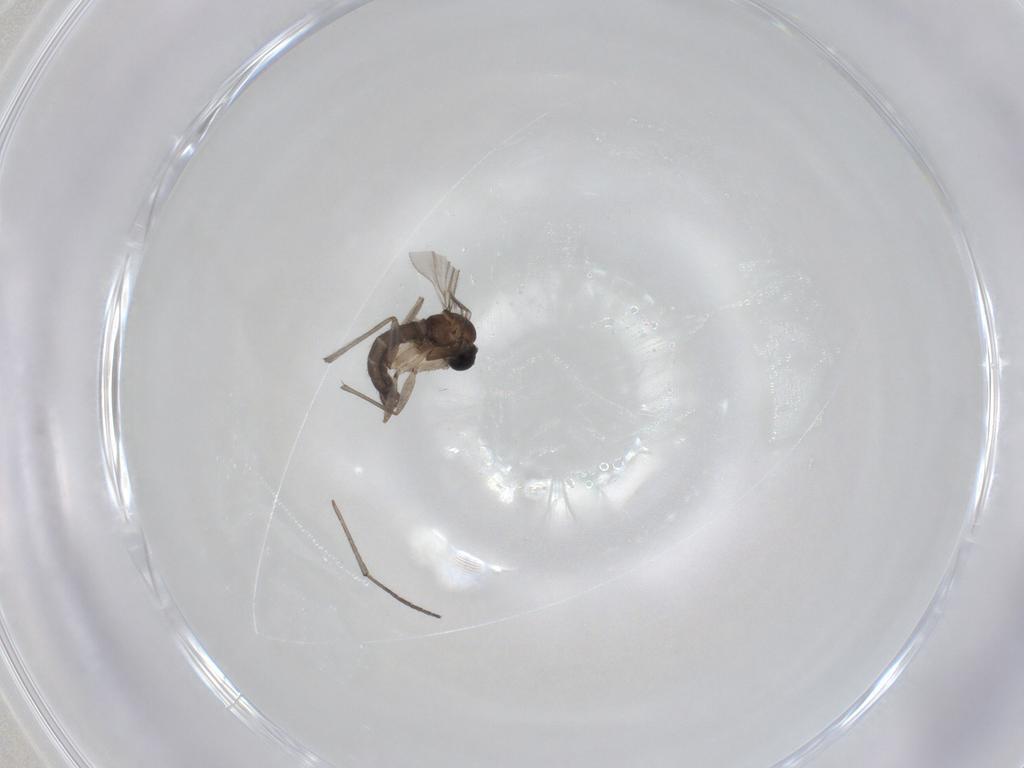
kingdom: Animalia
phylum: Arthropoda
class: Insecta
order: Diptera
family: Sciaridae
